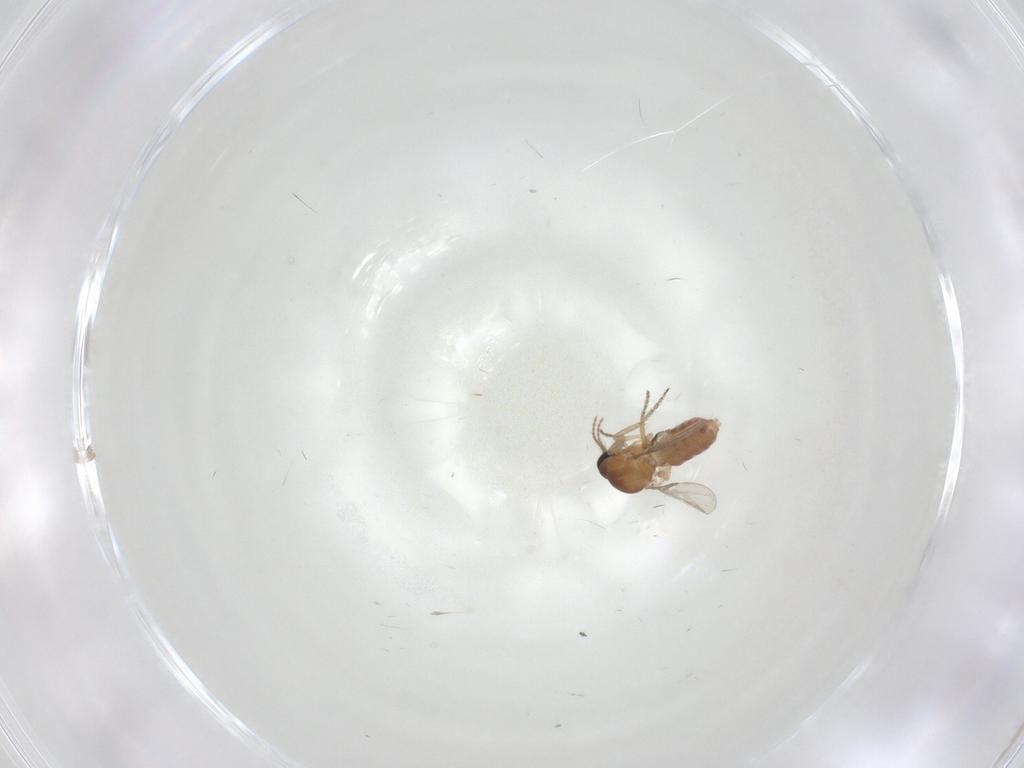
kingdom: Animalia
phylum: Arthropoda
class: Insecta
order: Diptera
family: Ceratopogonidae
